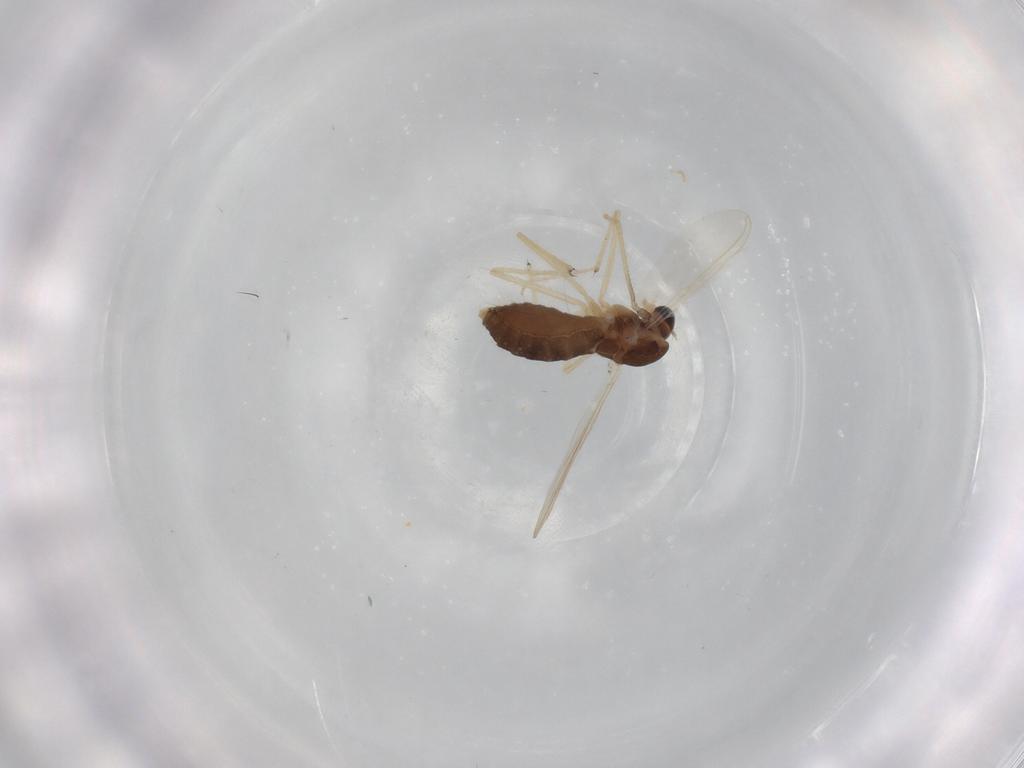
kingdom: Animalia
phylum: Arthropoda
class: Insecta
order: Diptera
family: Chironomidae
